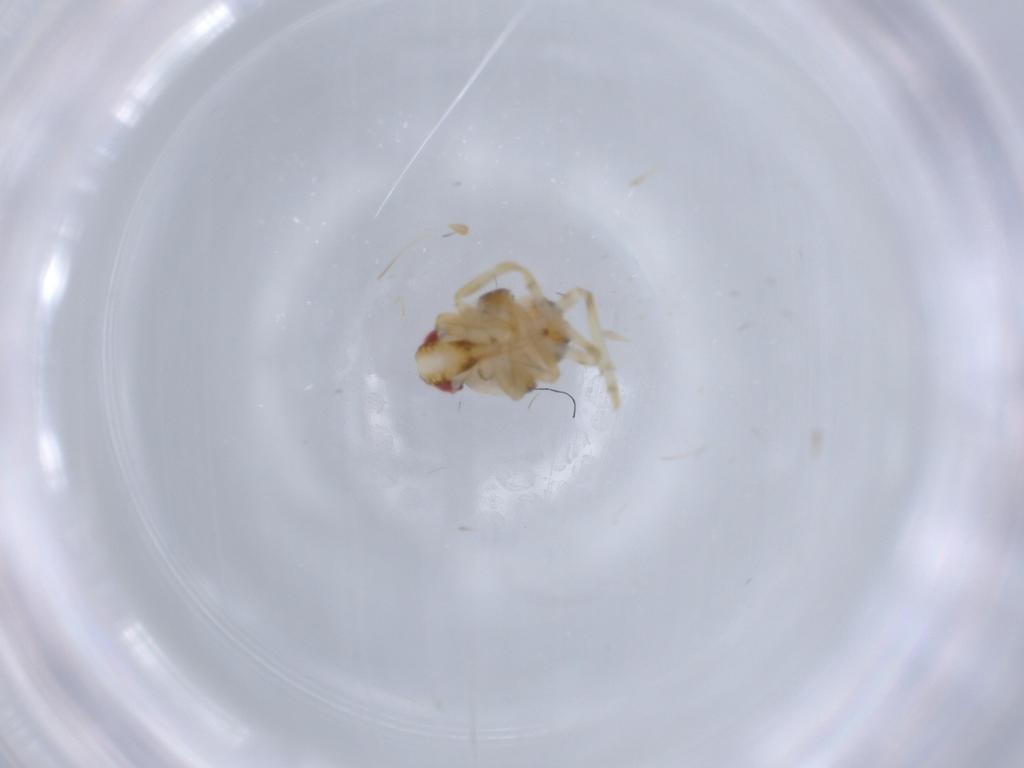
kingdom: Animalia
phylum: Arthropoda
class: Insecta
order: Hemiptera
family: Issidae
